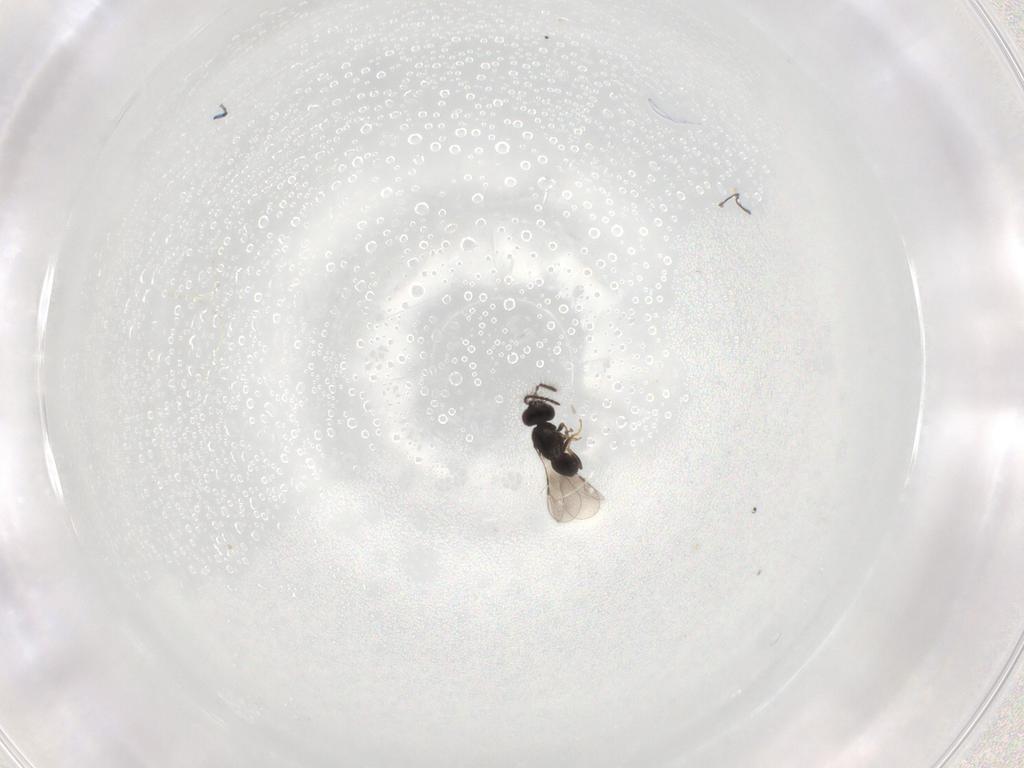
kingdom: Animalia
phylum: Arthropoda
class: Insecta
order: Hymenoptera
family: Ceraphronidae
